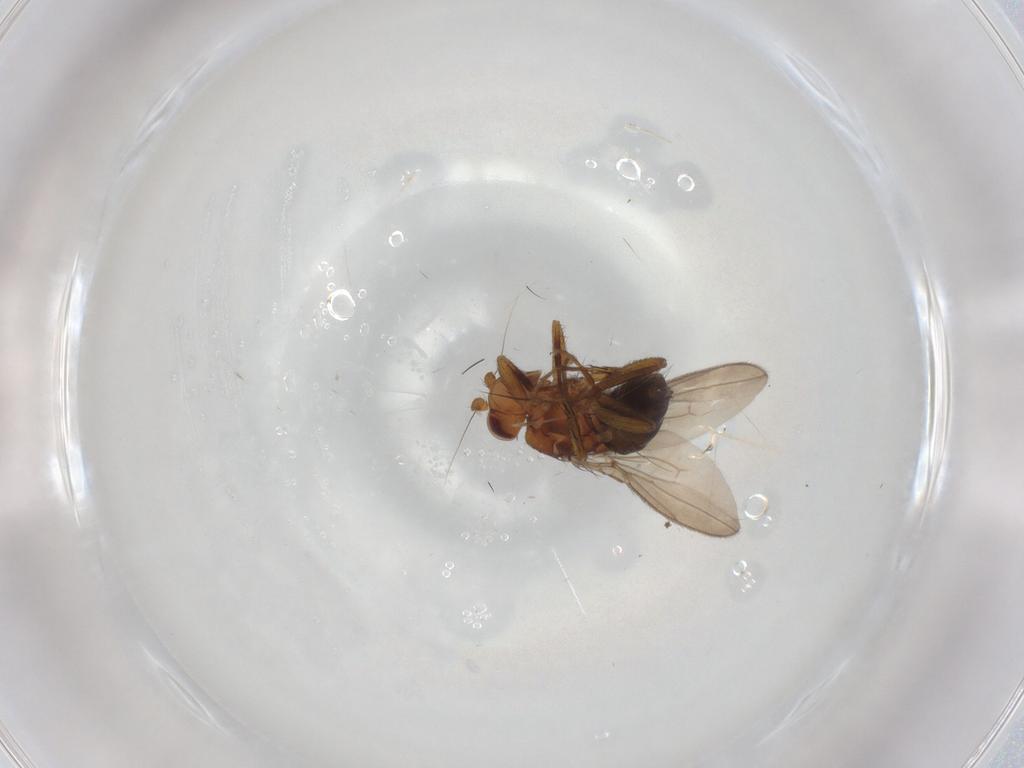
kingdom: Animalia
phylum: Arthropoda
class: Insecta
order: Diptera
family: Sphaeroceridae
